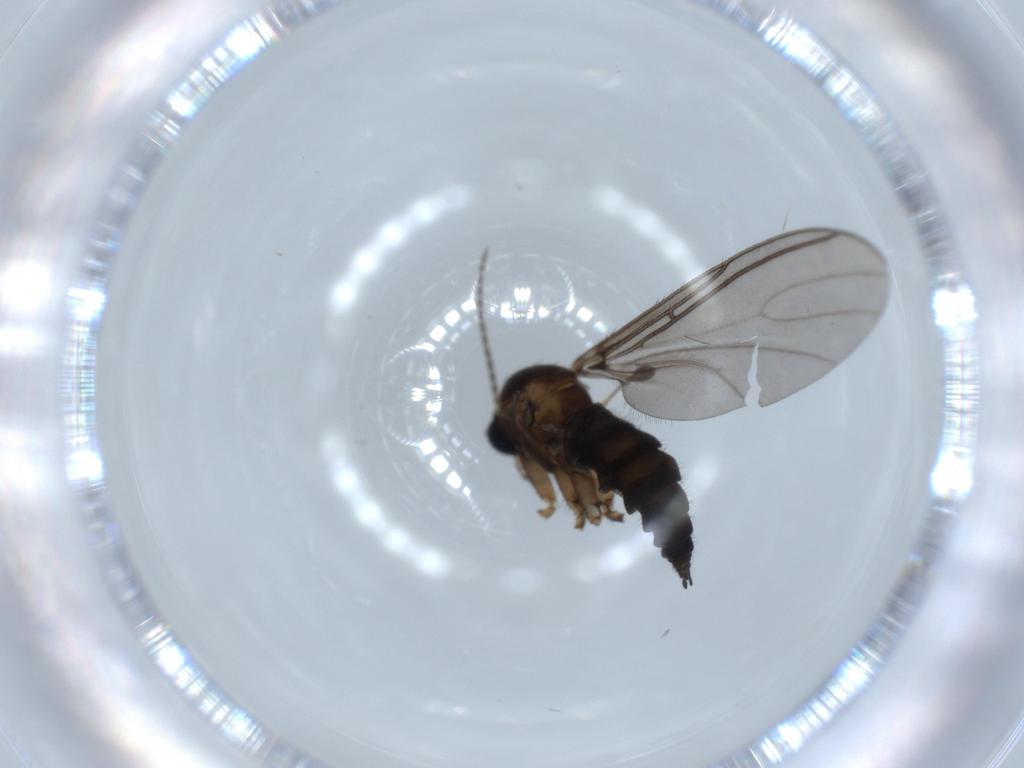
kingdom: Animalia
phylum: Arthropoda
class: Insecta
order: Diptera
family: Sciaridae
